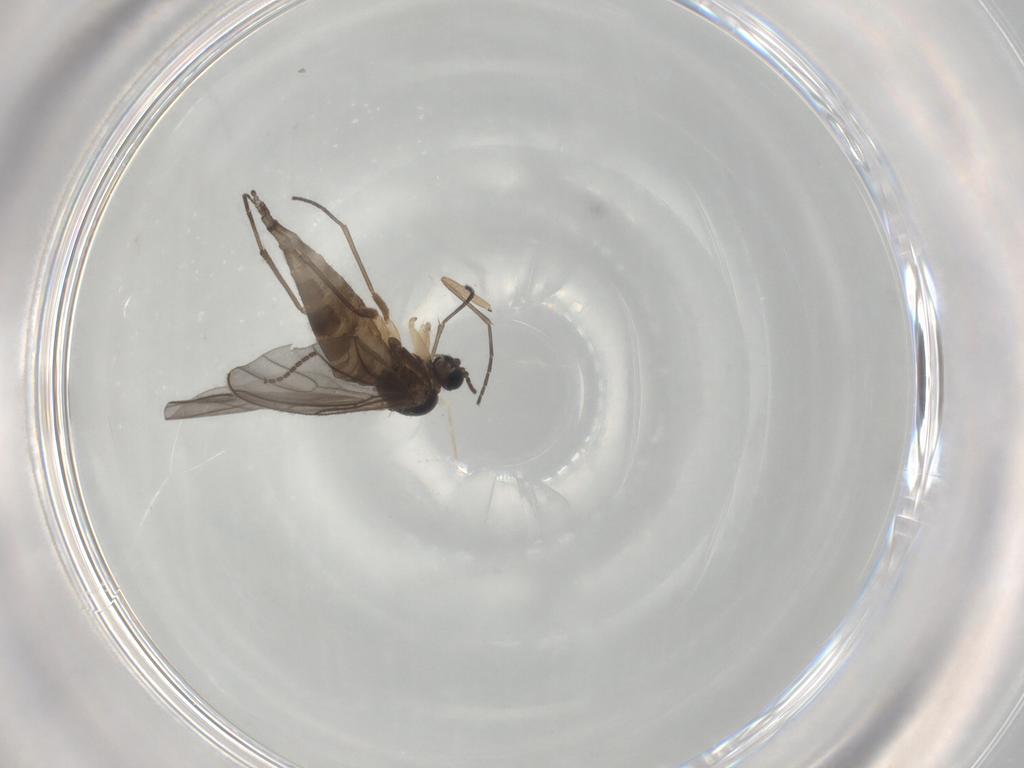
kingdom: Animalia
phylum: Arthropoda
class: Insecta
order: Diptera
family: Sciaridae
